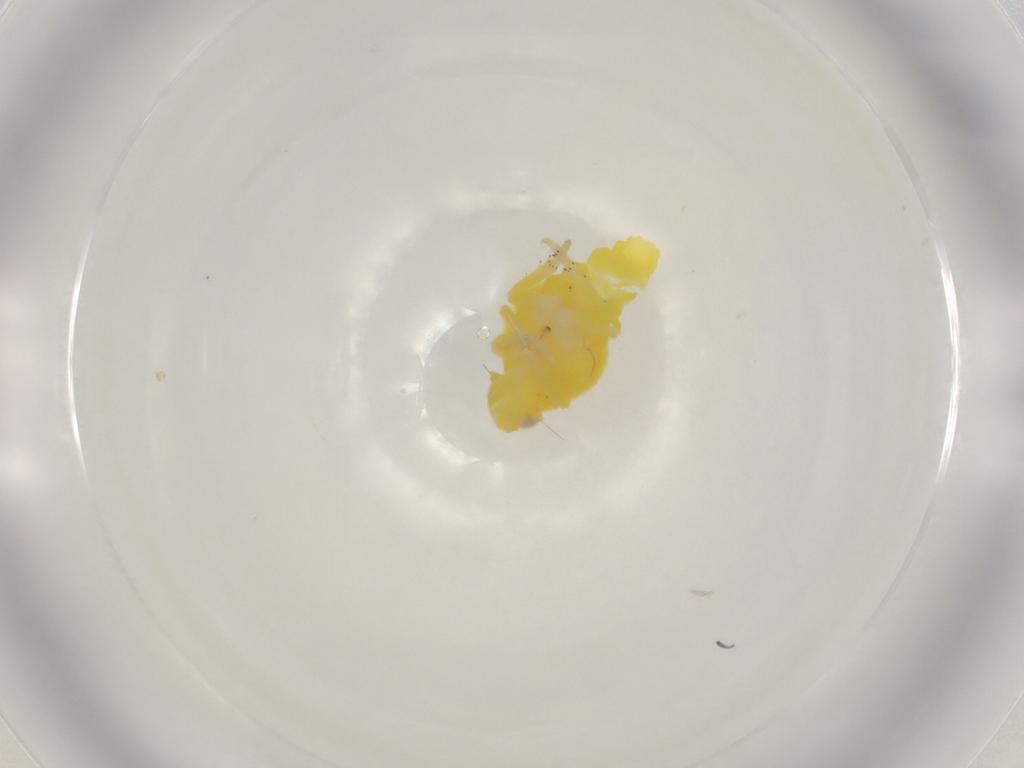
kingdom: Animalia
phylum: Arthropoda
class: Insecta
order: Hemiptera
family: Tropiduchidae
